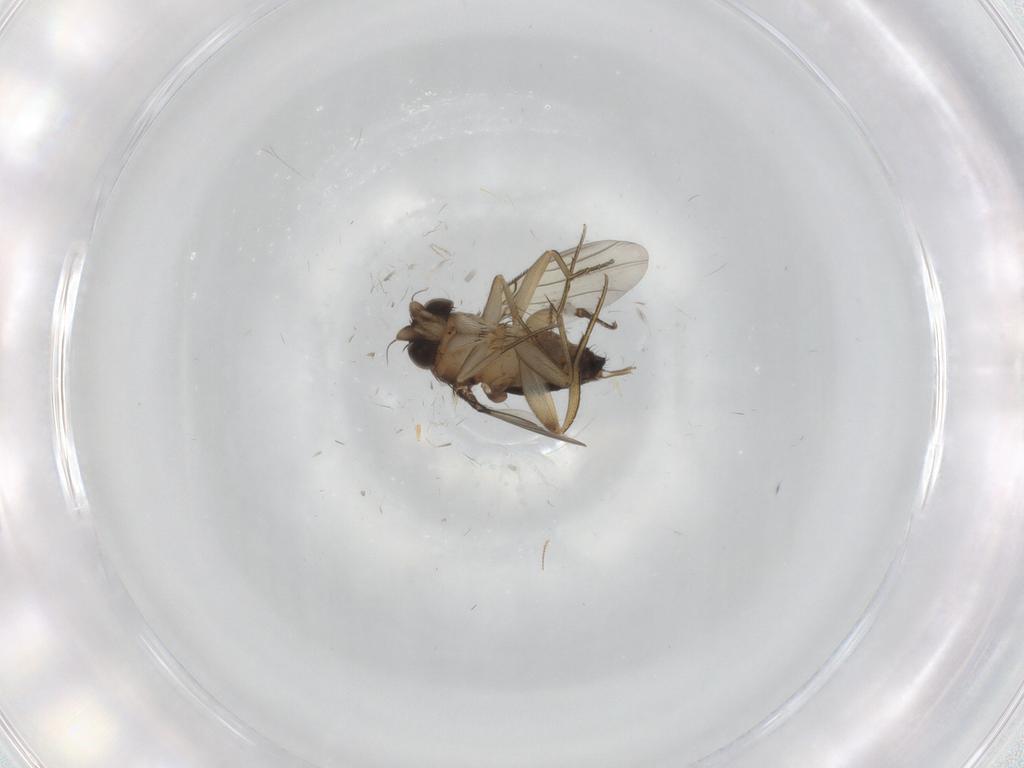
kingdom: Animalia
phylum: Arthropoda
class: Insecta
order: Diptera
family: Phoridae
